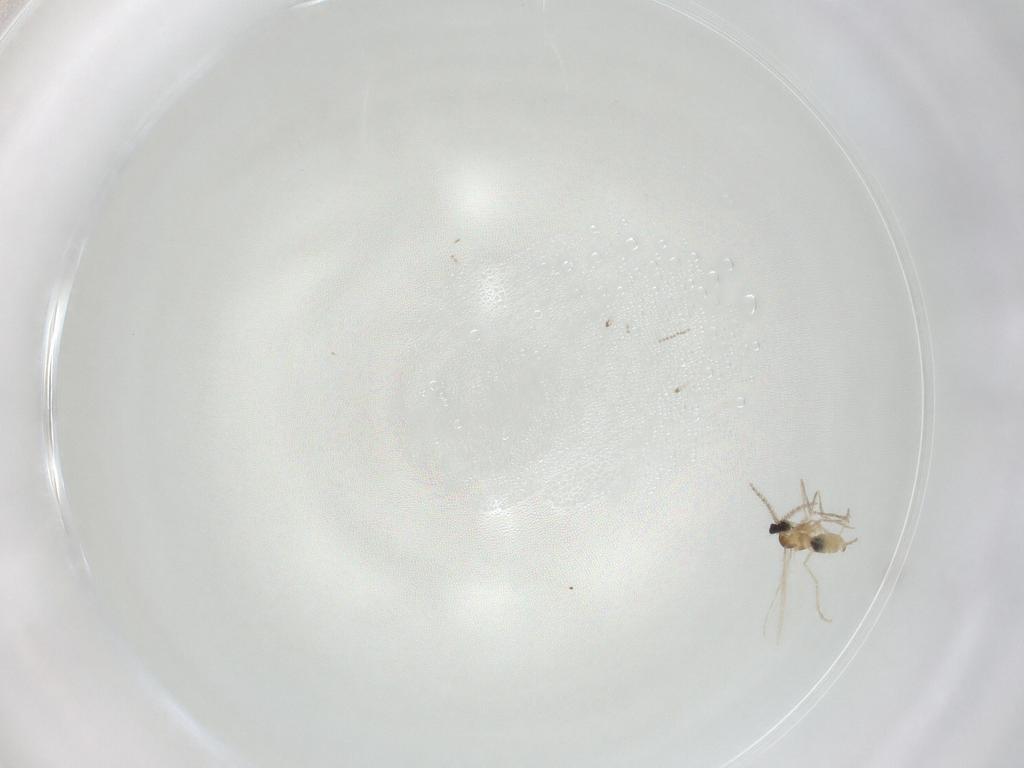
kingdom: Animalia
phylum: Arthropoda
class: Insecta
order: Diptera
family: Cecidomyiidae
